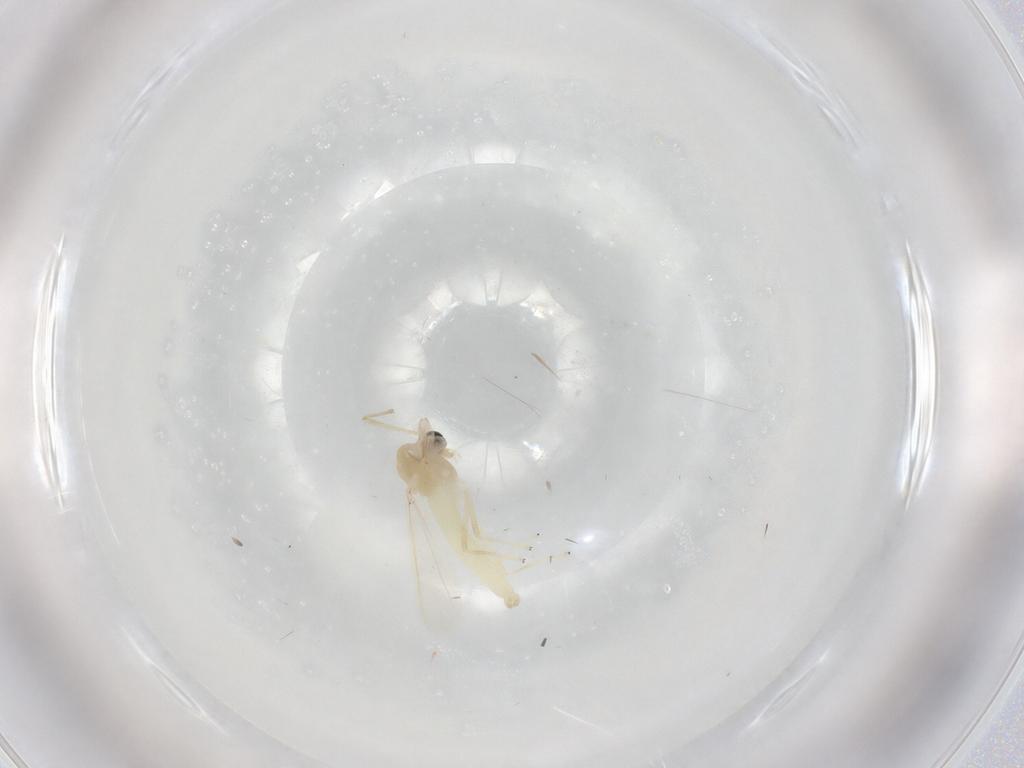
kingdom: Animalia
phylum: Arthropoda
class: Insecta
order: Diptera
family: Chironomidae
